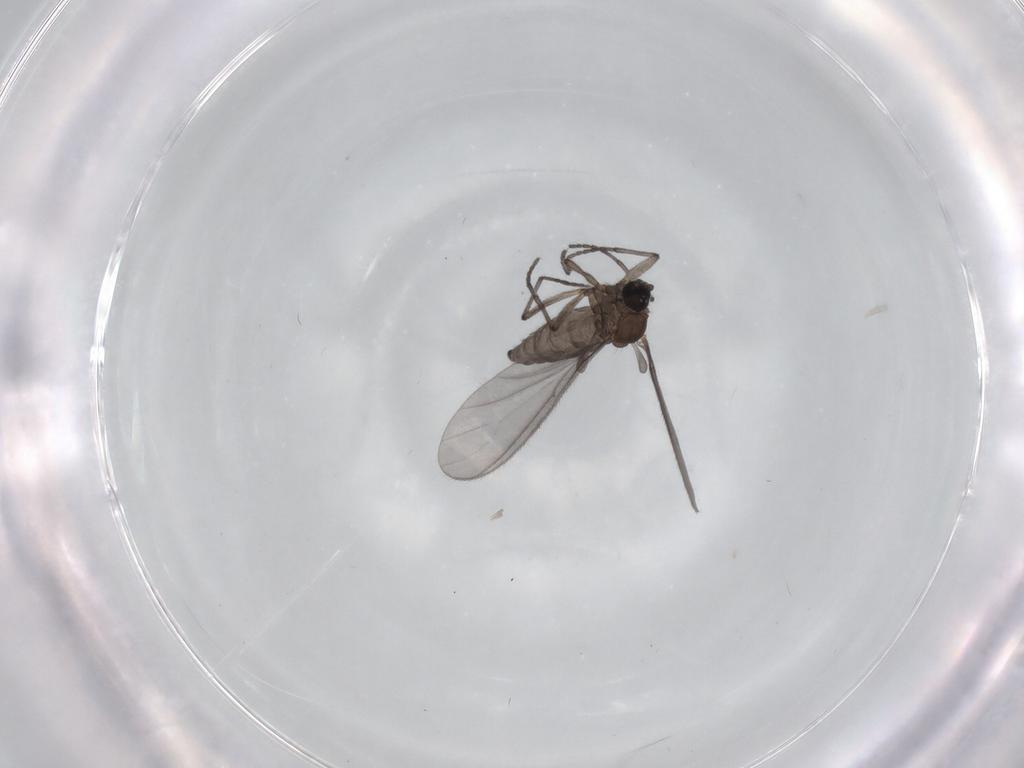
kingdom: Animalia
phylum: Arthropoda
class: Insecta
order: Diptera
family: Sciaridae
